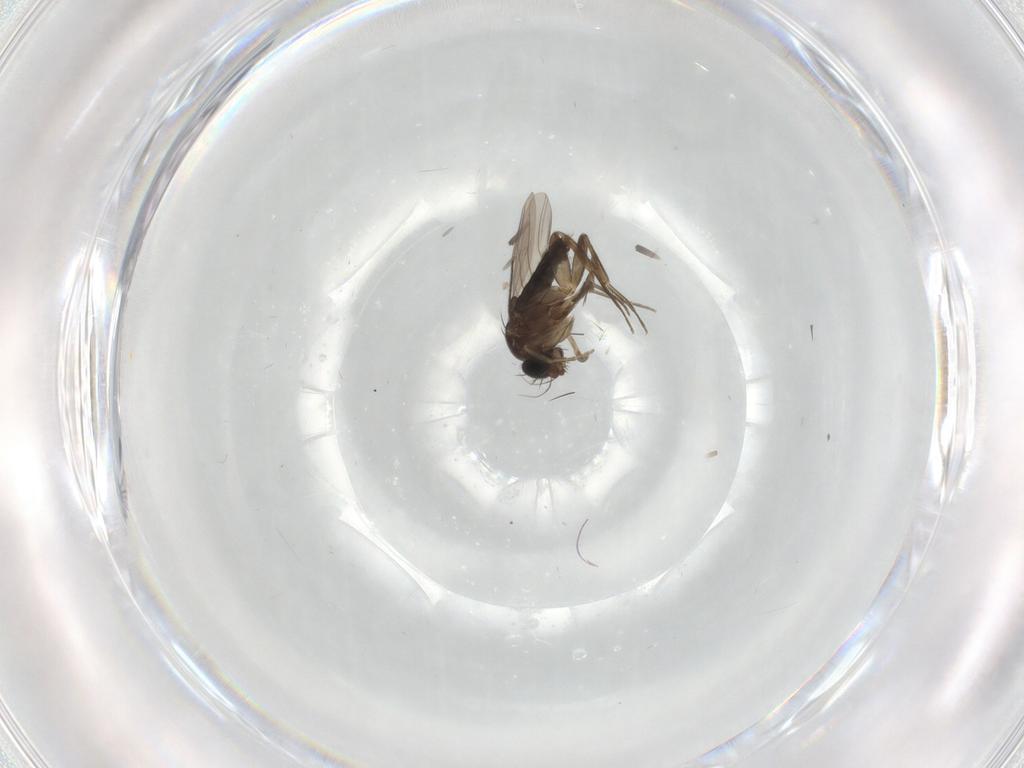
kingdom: Animalia
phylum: Arthropoda
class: Insecta
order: Diptera
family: Phoridae
